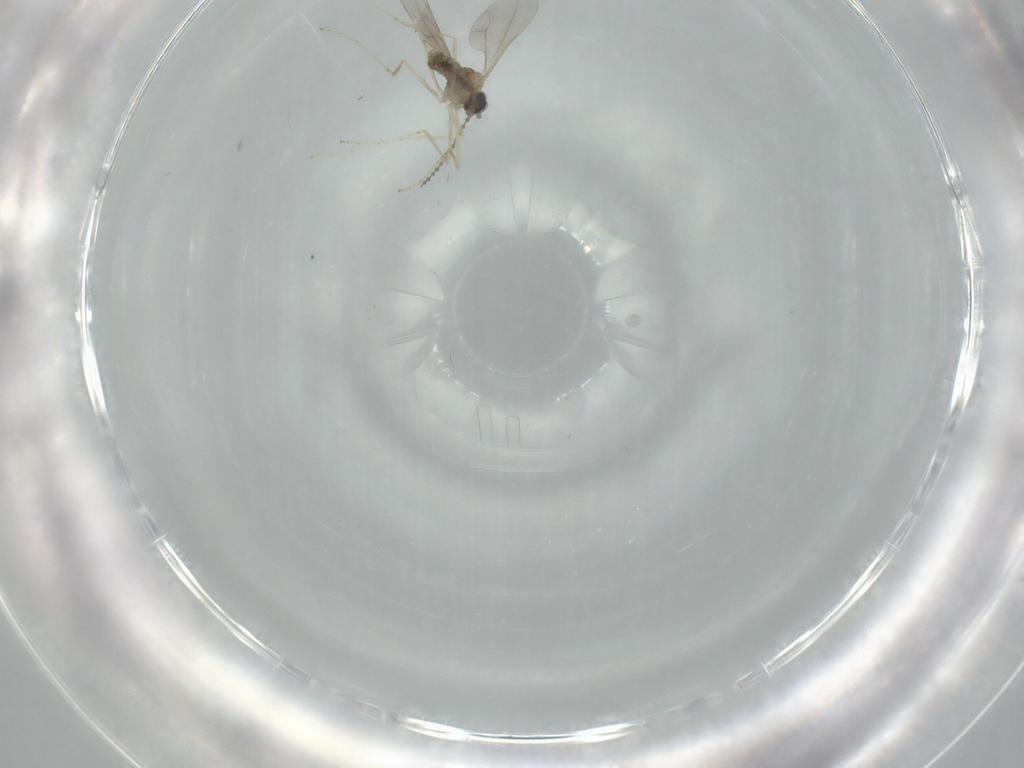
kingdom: Animalia
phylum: Arthropoda
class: Insecta
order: Diptera
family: Cecidomyiidae
